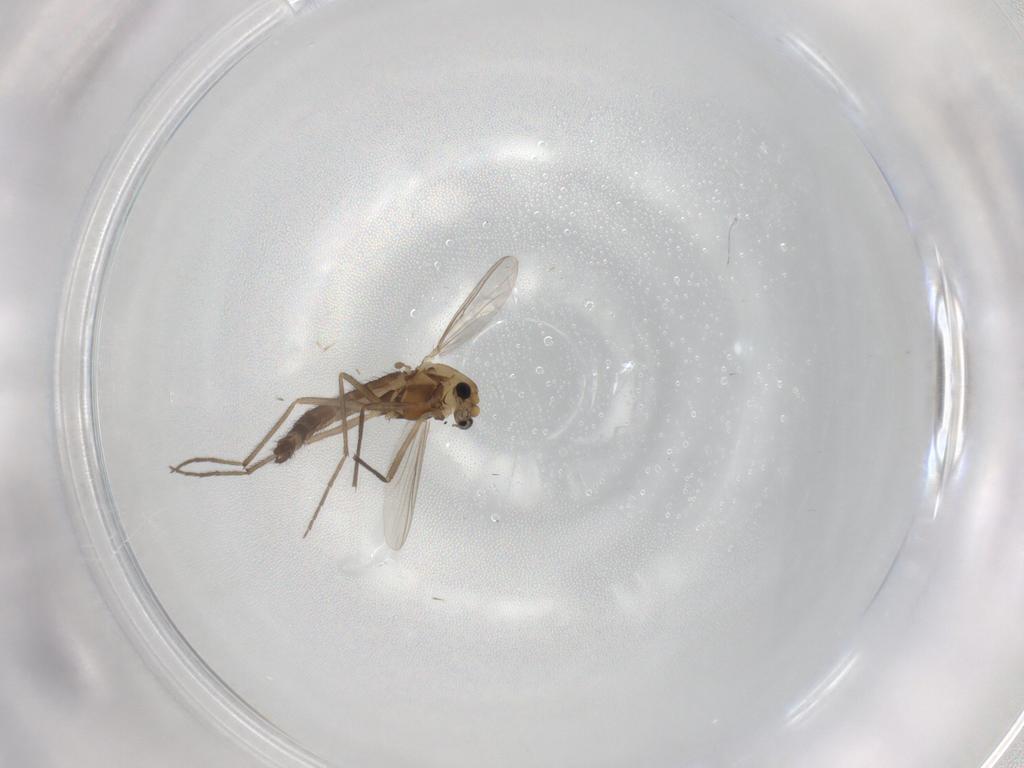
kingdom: Animalia
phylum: Arthropoda
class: Insecta
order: Diptera
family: Chironomidae
